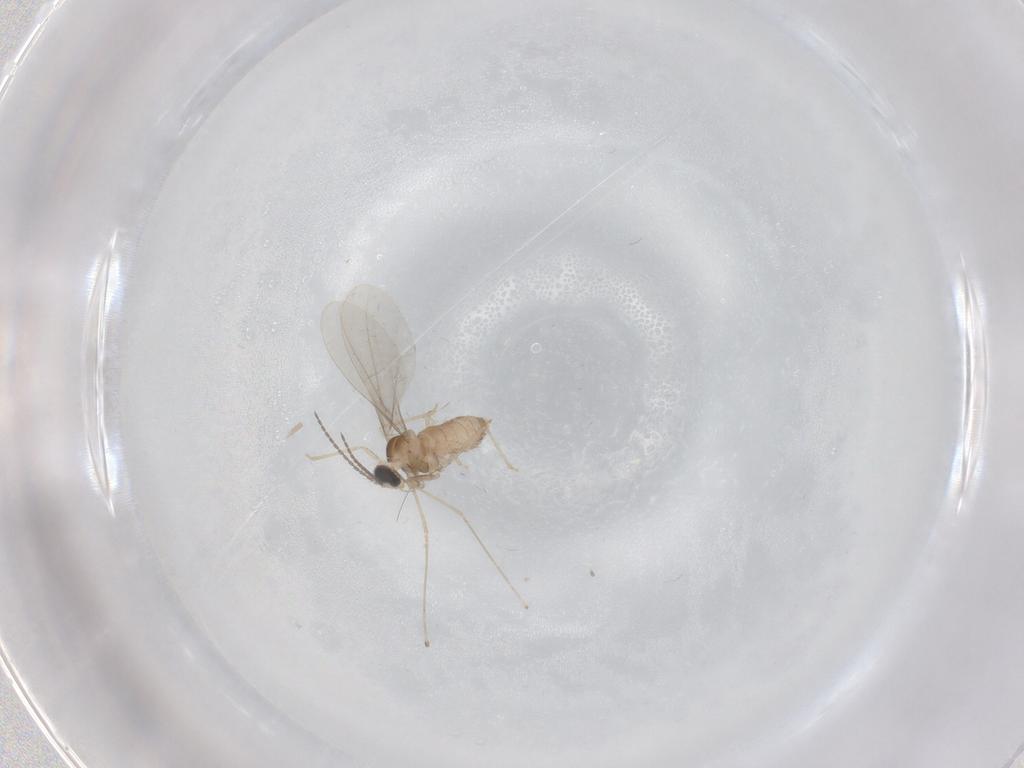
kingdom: Animalia
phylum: Arthropoda
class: Insecta
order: Diptera
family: Cecidomyiidae
